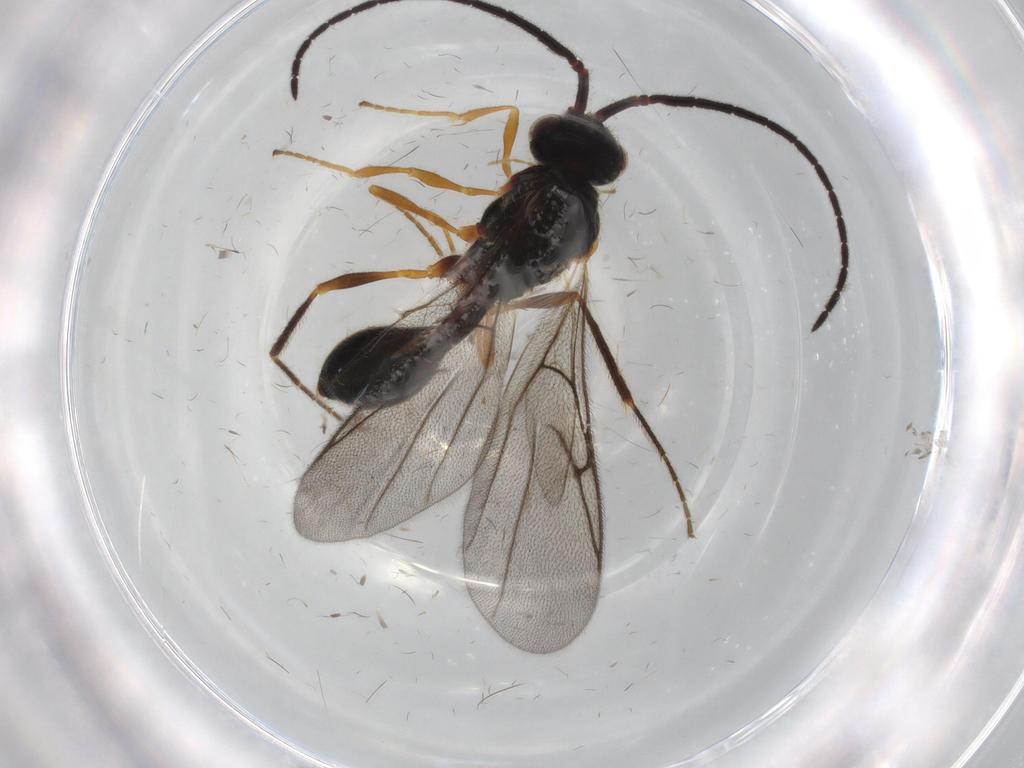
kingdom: Animalia
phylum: Arthropoda
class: Insecta
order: Hymenoptera
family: Diapriidae
